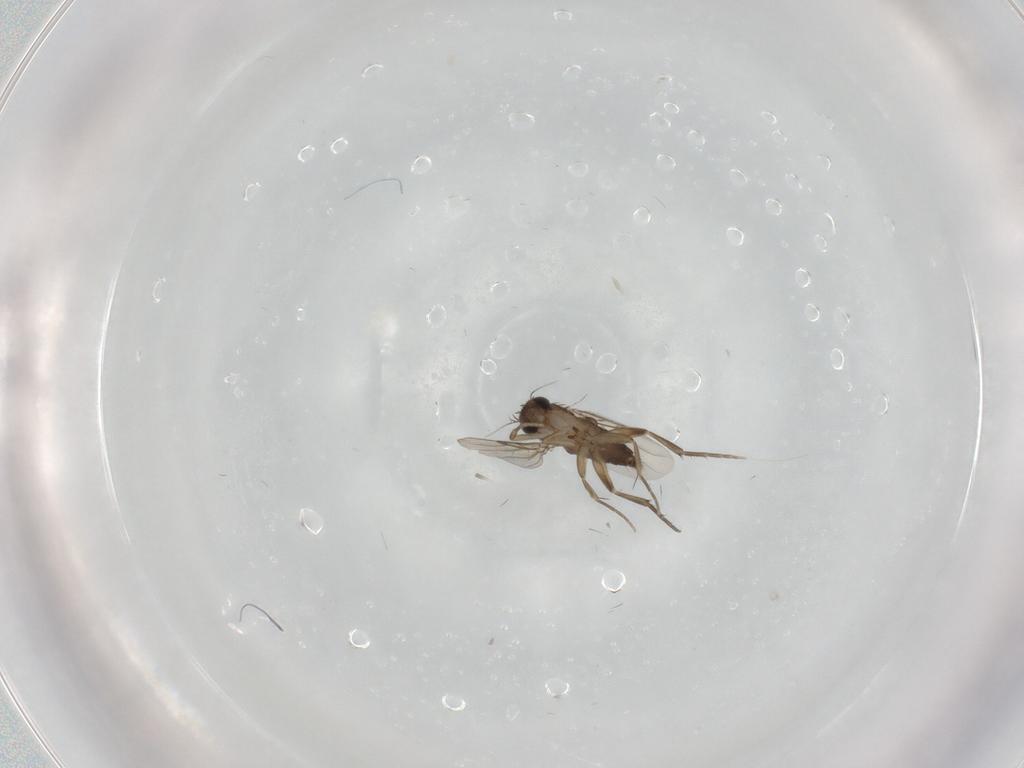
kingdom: Animalia
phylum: Arthropoda
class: Insecta
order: Diptera
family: Phoridae
